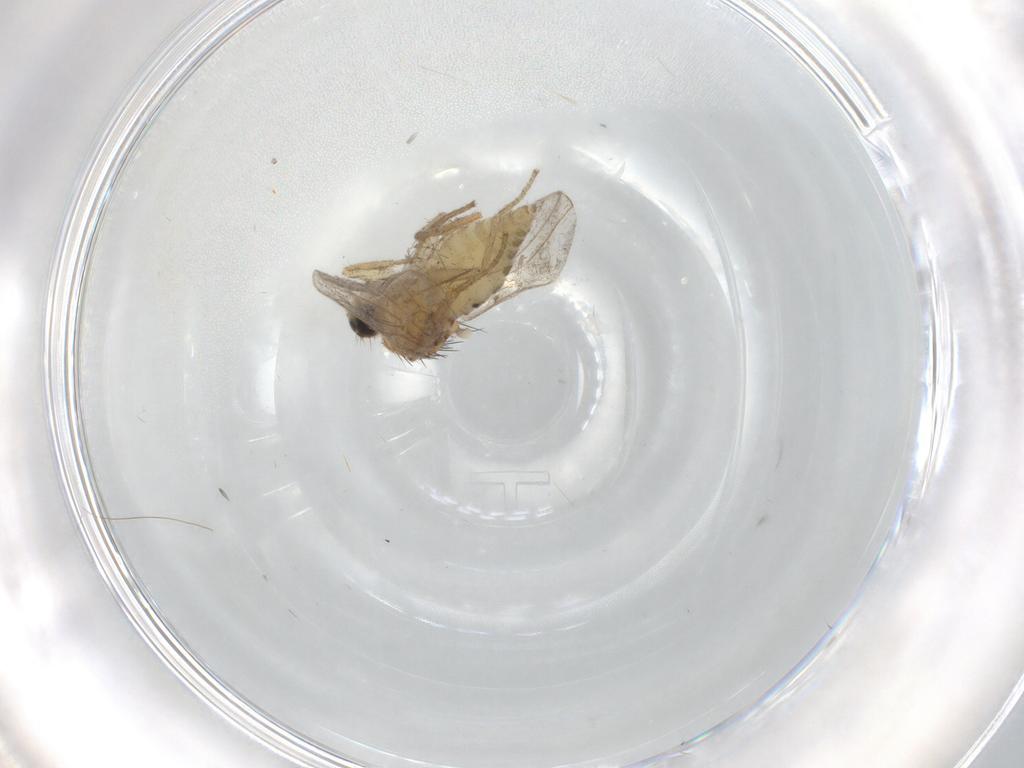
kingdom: Animalia
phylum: Arthropoda
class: Insecta
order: Diptera
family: Hybotidae
